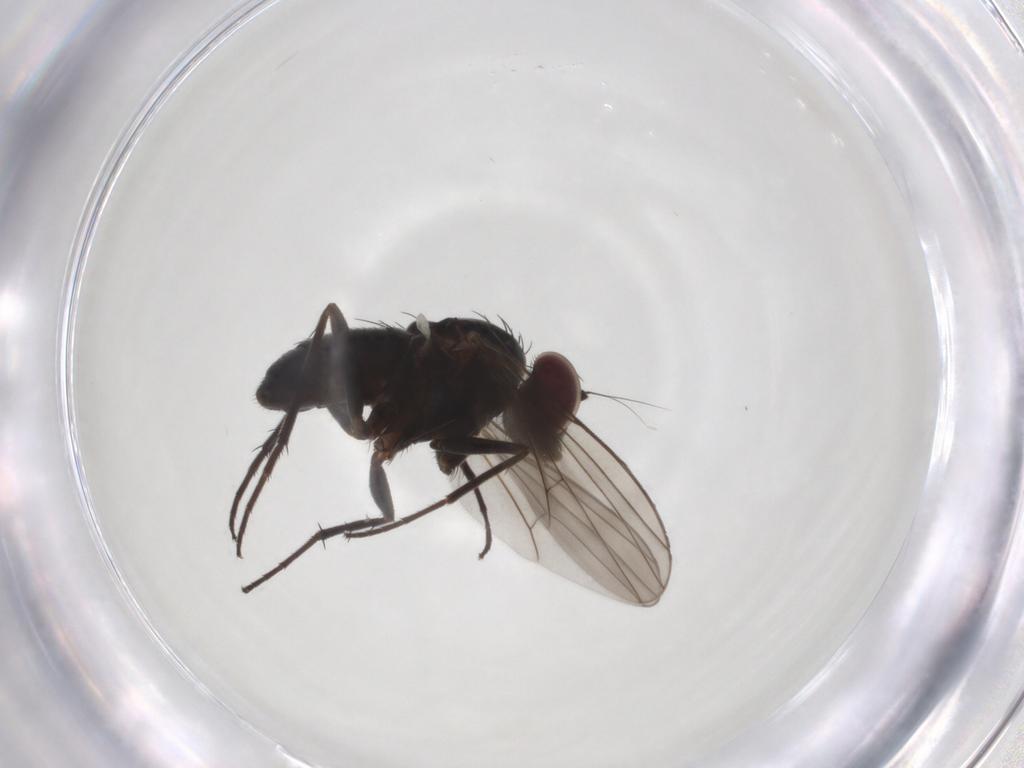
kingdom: Animalia
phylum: Arthropoda
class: Insecta
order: Diptera
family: Dolichopodidae
